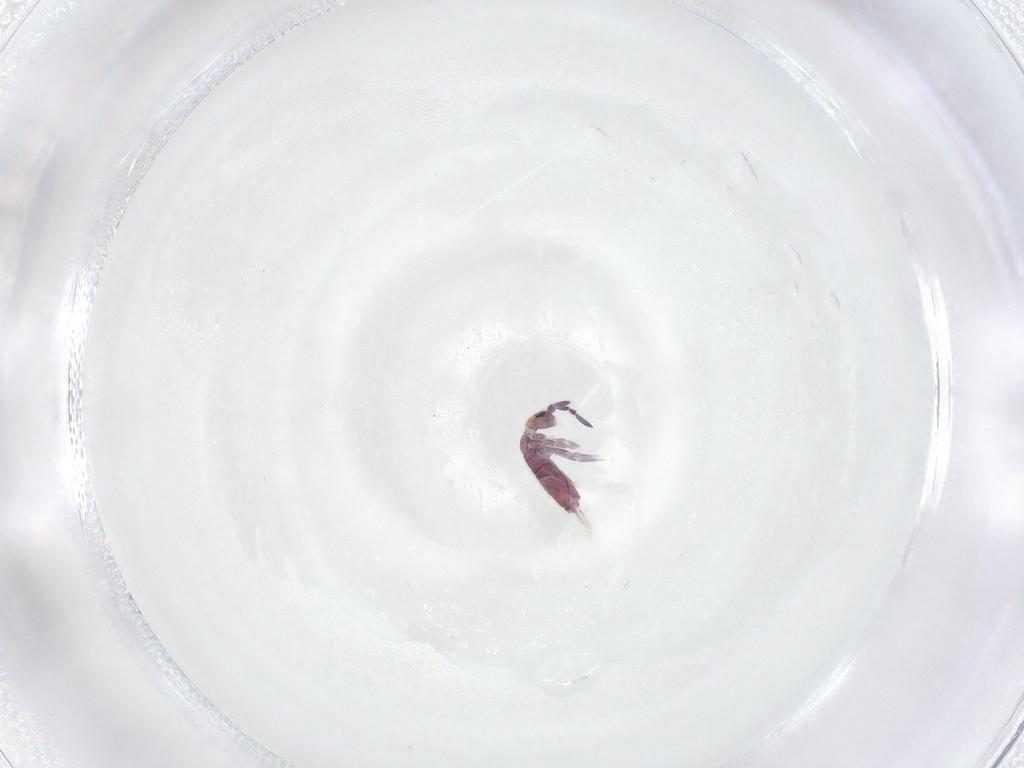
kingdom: Animalia
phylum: Arthropoda
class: Collembola
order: Entomobryomorpha
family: Entomobryidae
